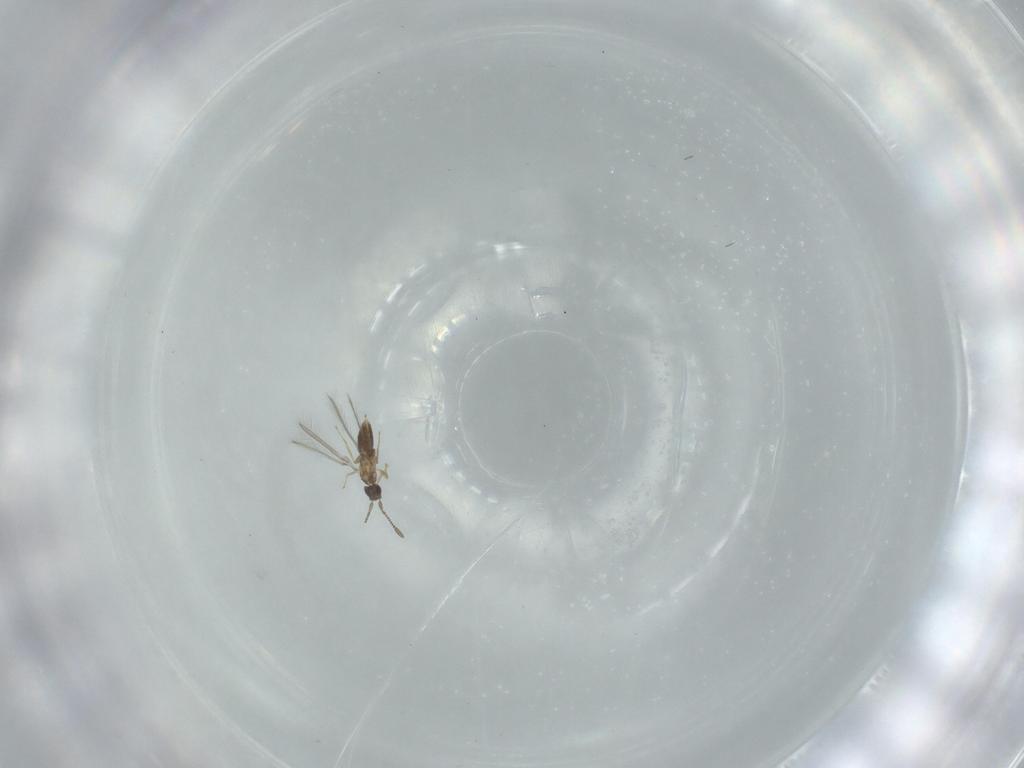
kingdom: Animalia
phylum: Arthropoda
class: Insecta
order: Hymenoptera
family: Mymaridae
